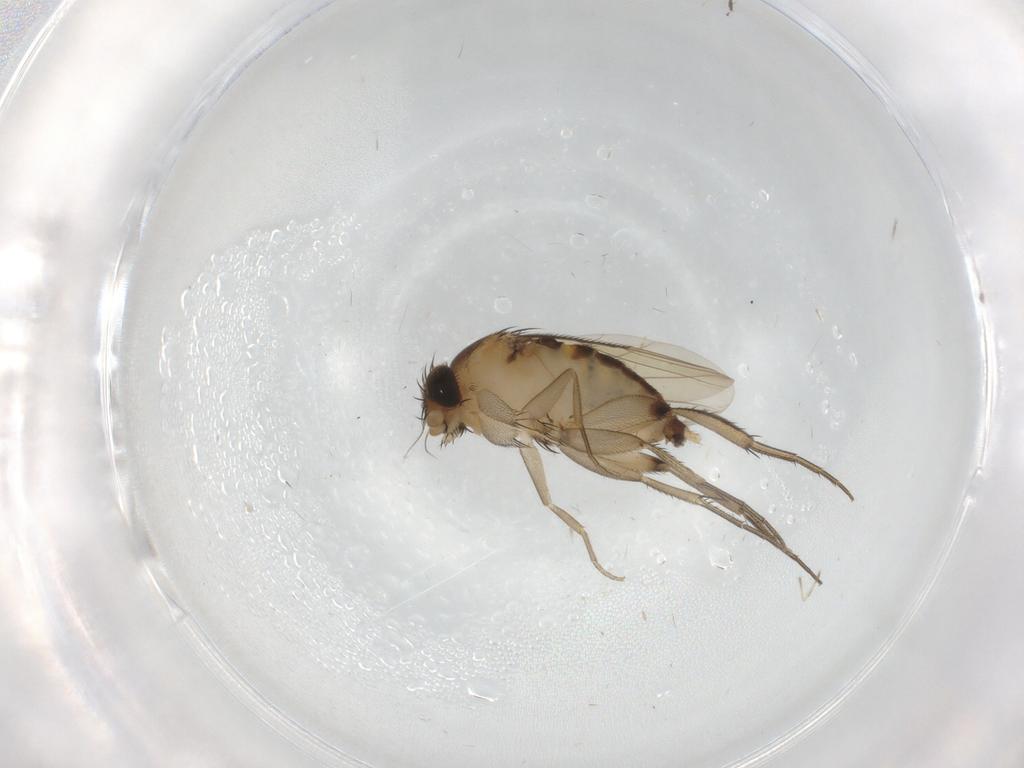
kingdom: Animalia
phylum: Arthropoda
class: Insecta
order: Diptera
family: Phoridae
